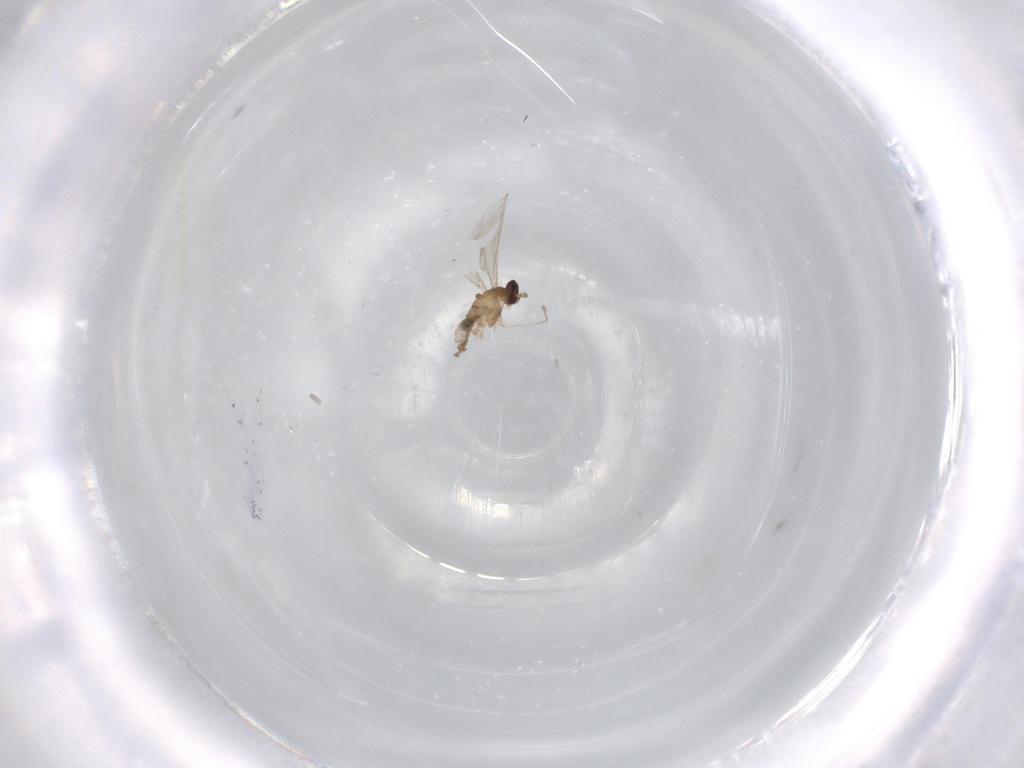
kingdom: Animalia
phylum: Arthropoda
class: Insecta
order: Diptera
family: Cecidomyiidae
